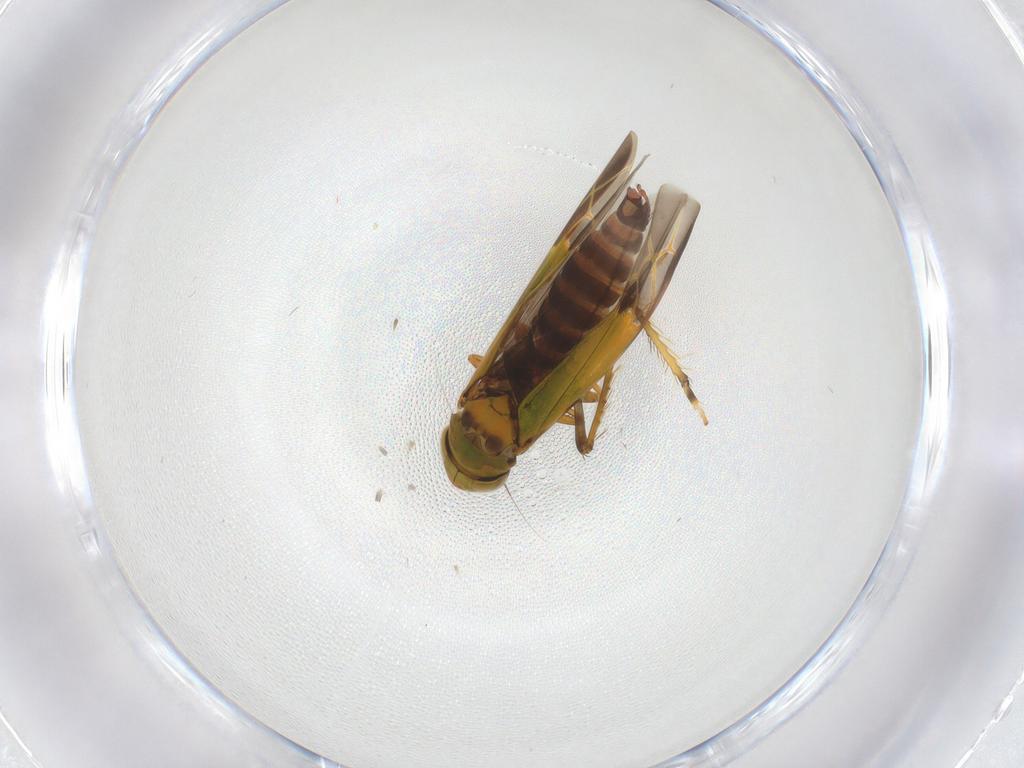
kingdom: Animalia
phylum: Arthropoda
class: Insecta
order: Hemiptera
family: Cicadellidae
